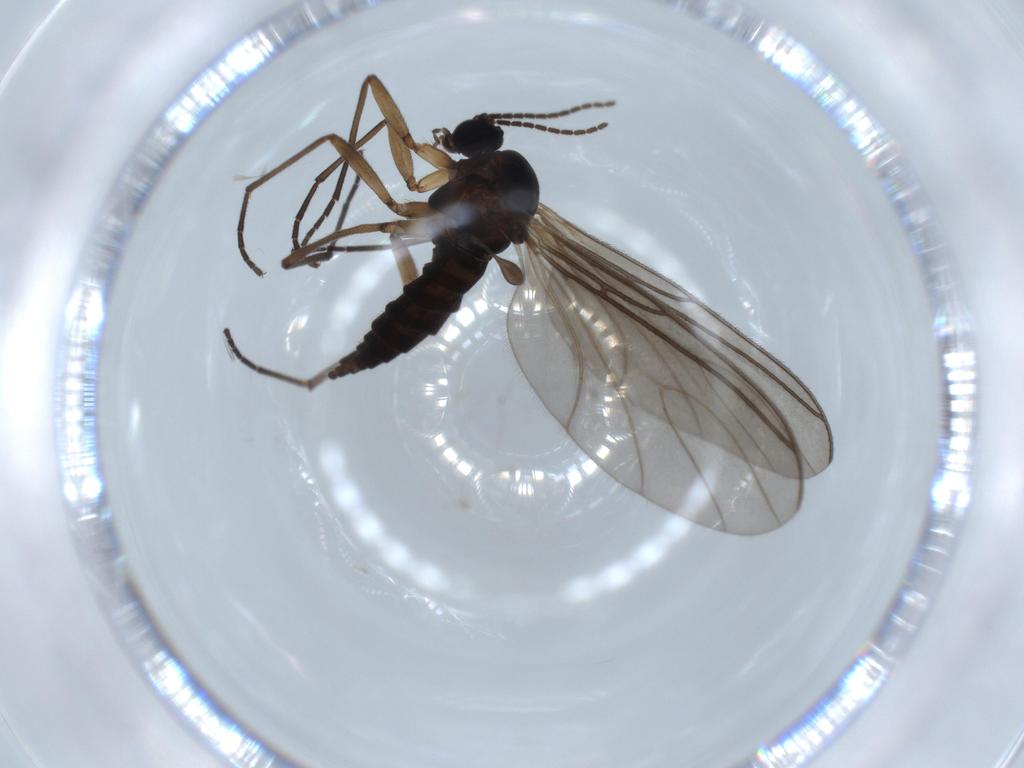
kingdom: Animalia
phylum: Arthropoda
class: Insecta
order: Diptera
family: Sciaridae
